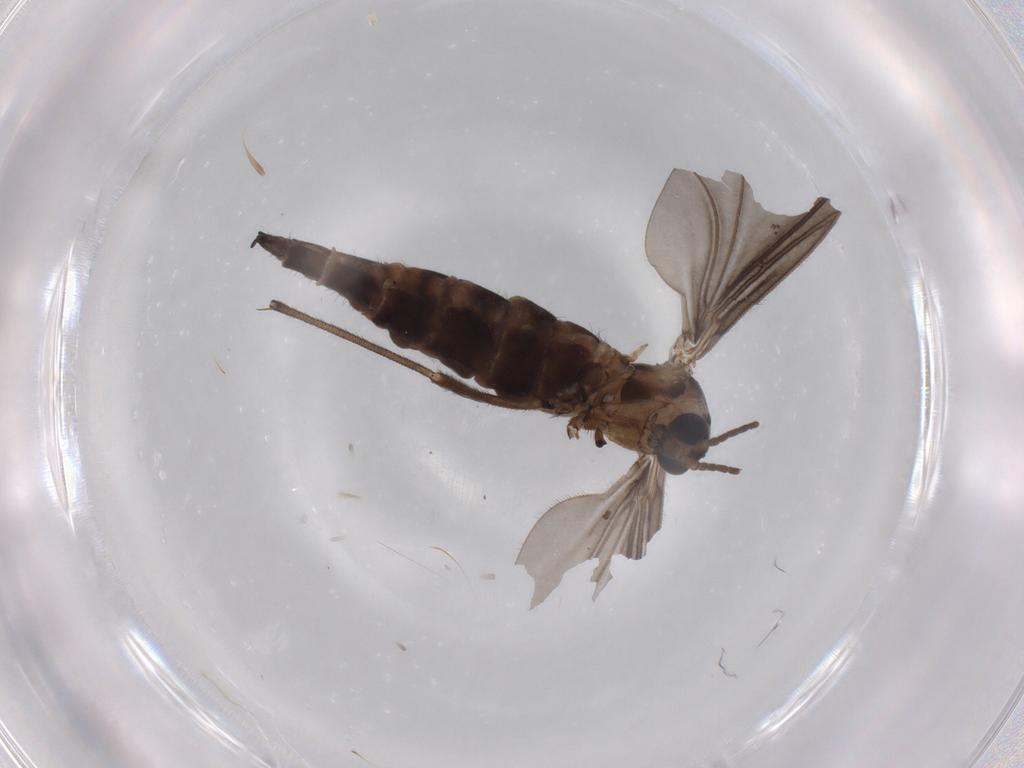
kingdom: Animalia
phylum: Arthropoda
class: Insecta
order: Diptera
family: Sciaridae
